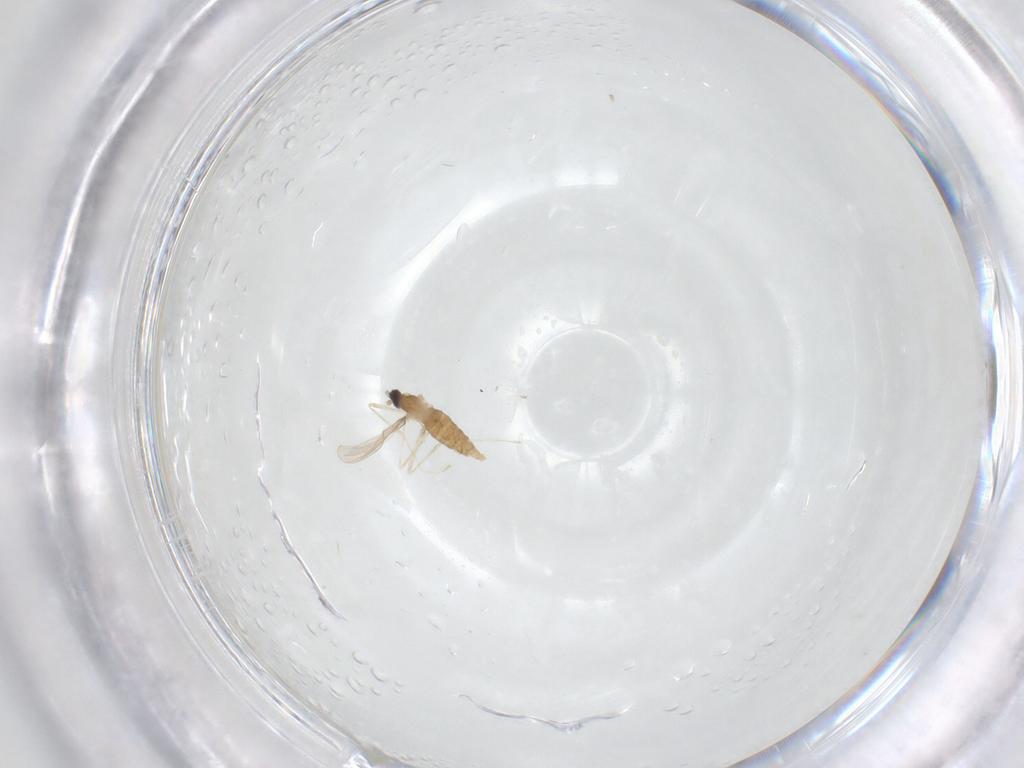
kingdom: Animalia
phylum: Arthropoda
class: Insecta
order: Diptera
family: Cecidomyiidae
